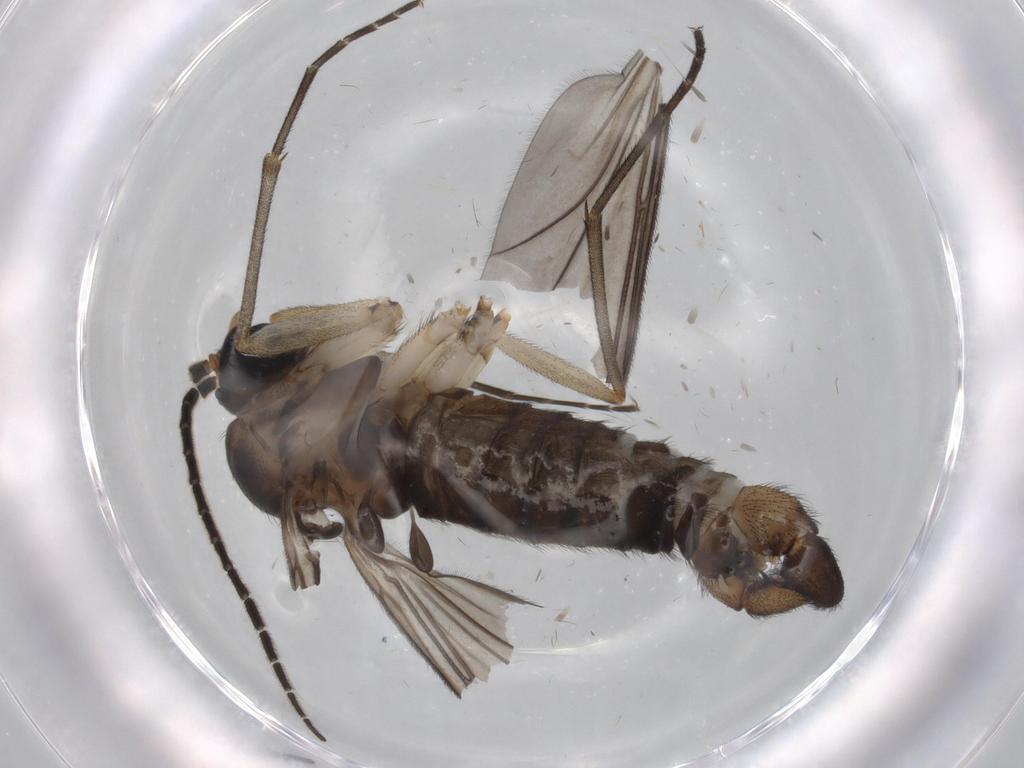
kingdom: Animalia
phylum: Arthropoda
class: Insecta
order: Diptera
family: Sciaridae
